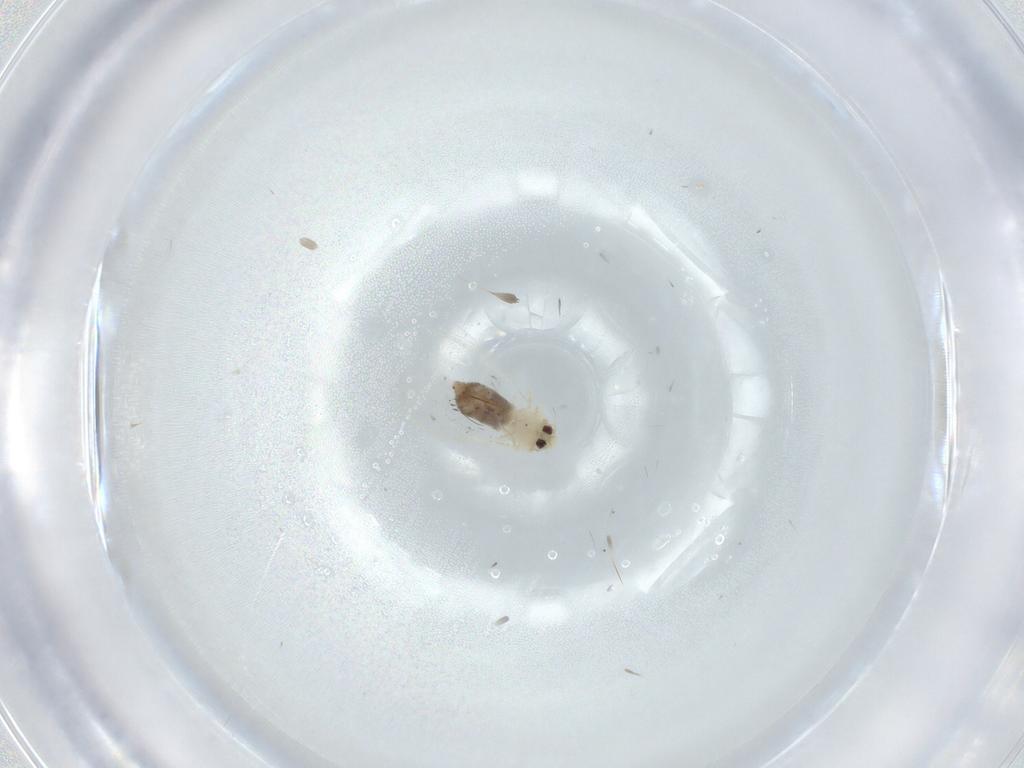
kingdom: Animalia
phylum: Arthropoda
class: Insecta
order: Hemiptera
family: Aleyrodidae
